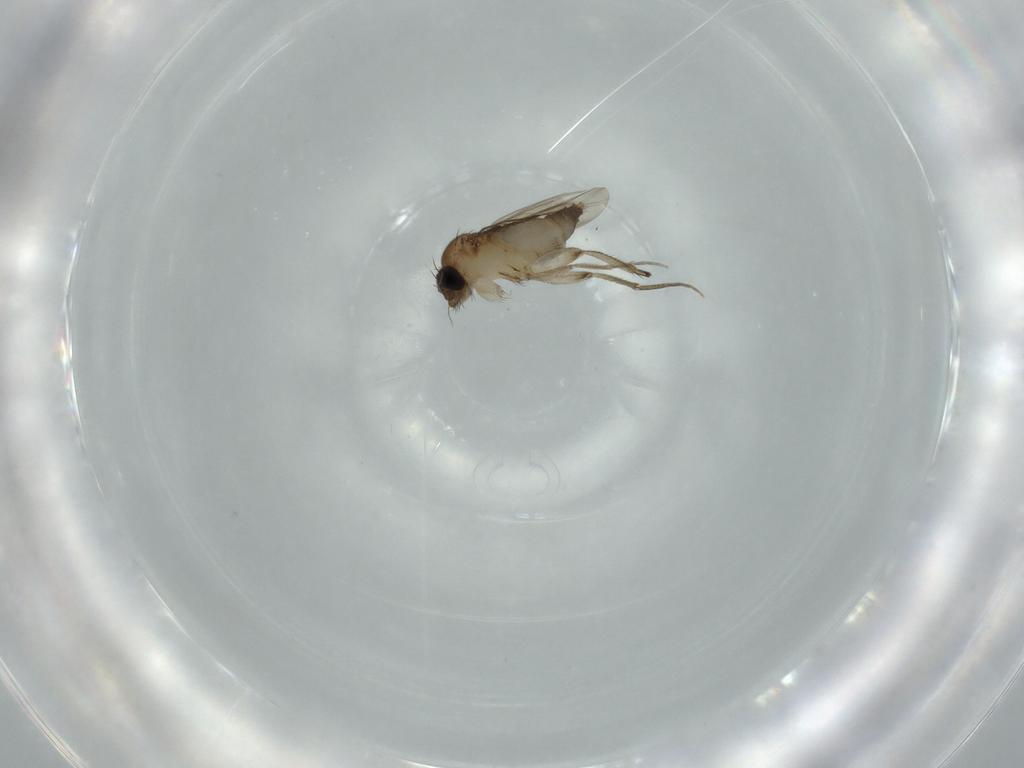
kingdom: Animalia
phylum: Arthropoda
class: Insecta
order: Diptera
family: Phoridae
